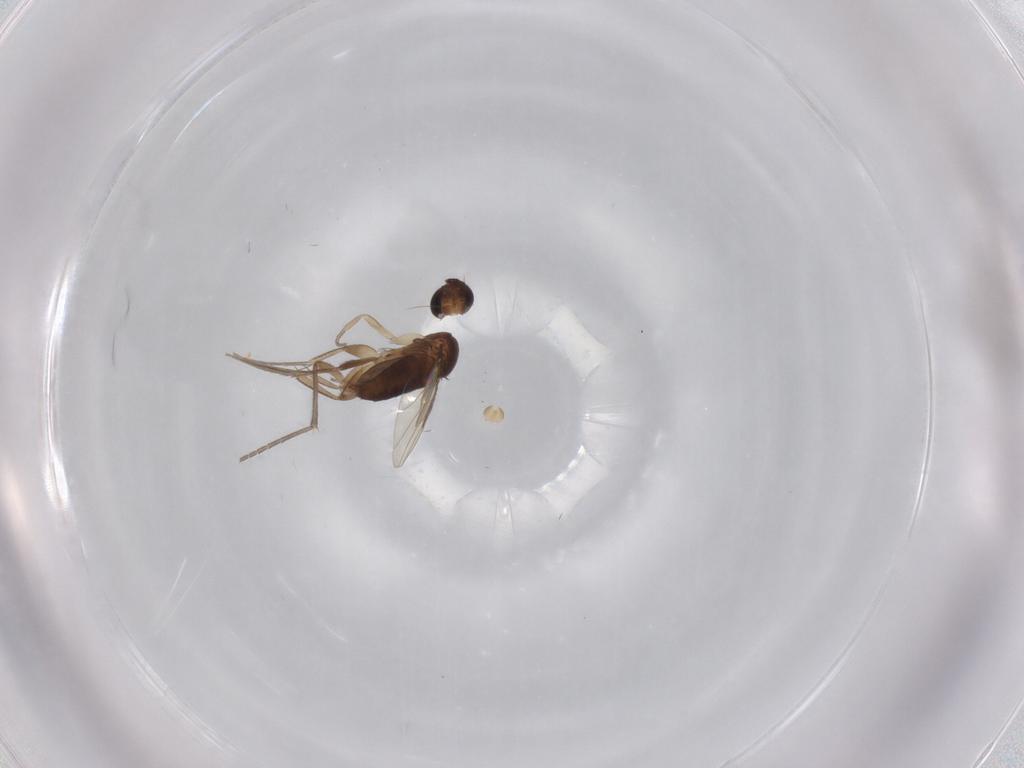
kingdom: Animalia
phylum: Arthropoda
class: Insecta
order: Diptera
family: Phoridae
